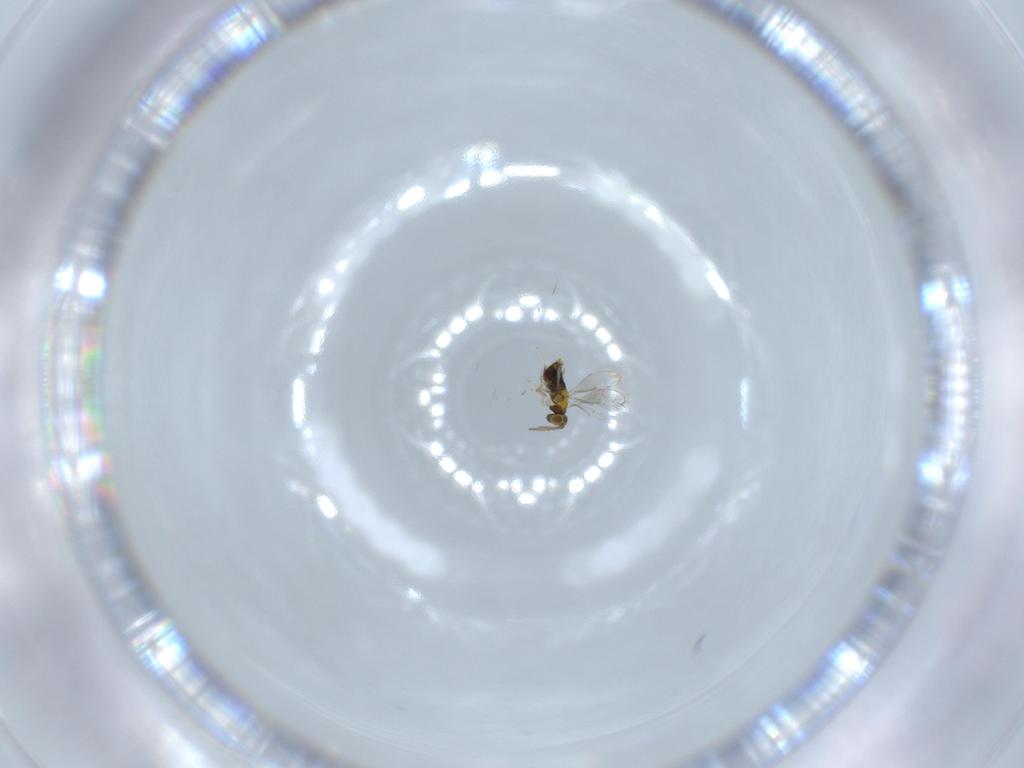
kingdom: Animalia
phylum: Arthropoda
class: Insecta
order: Hymenoptera
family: Aphelinidae
